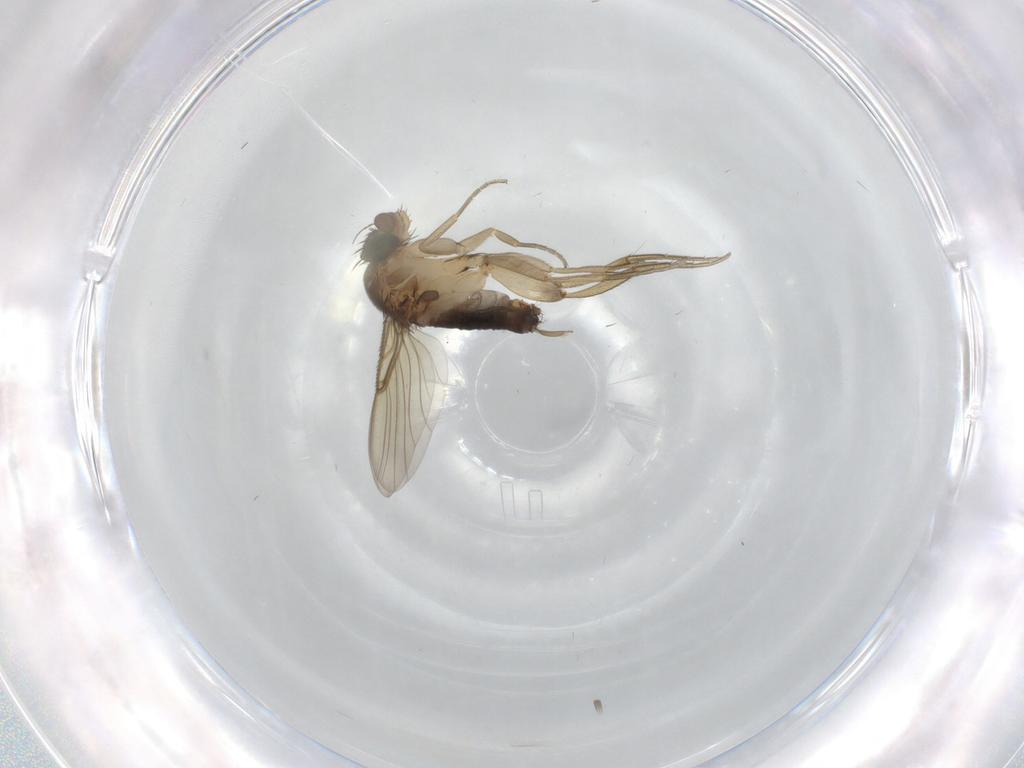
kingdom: Animalia
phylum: Arthropoda
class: Insecta
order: Diptera
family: Phoridae
